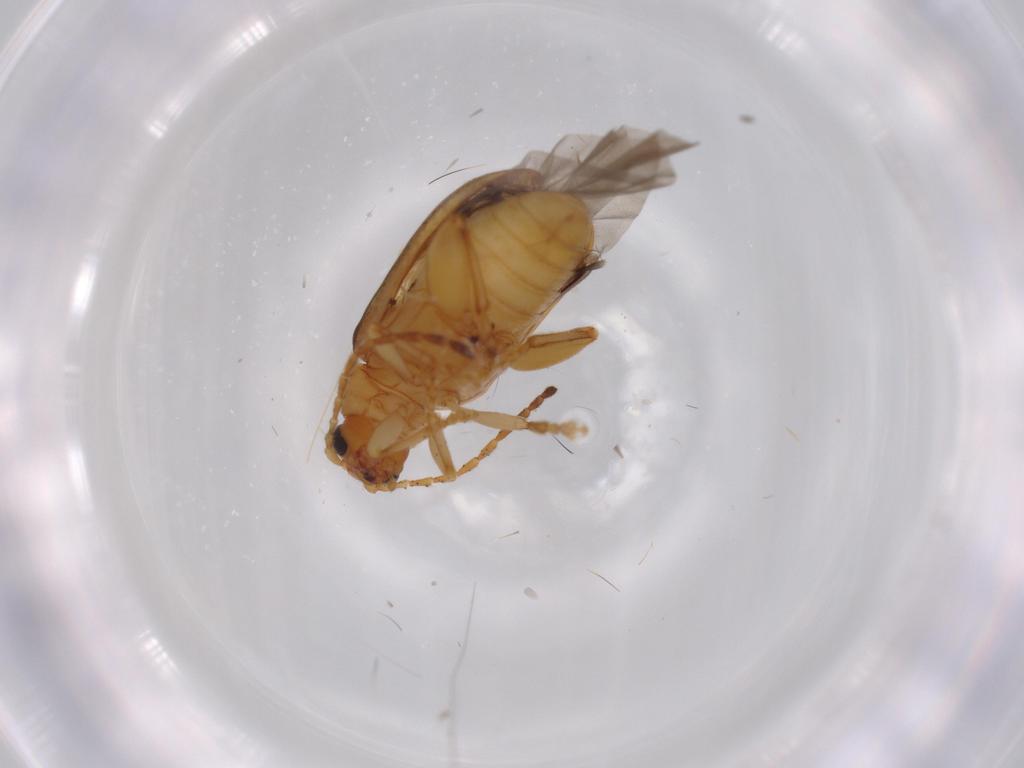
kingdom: Animalia
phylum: Arthropoda
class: Insecta
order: Coleoptera
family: Chrysomelidae
